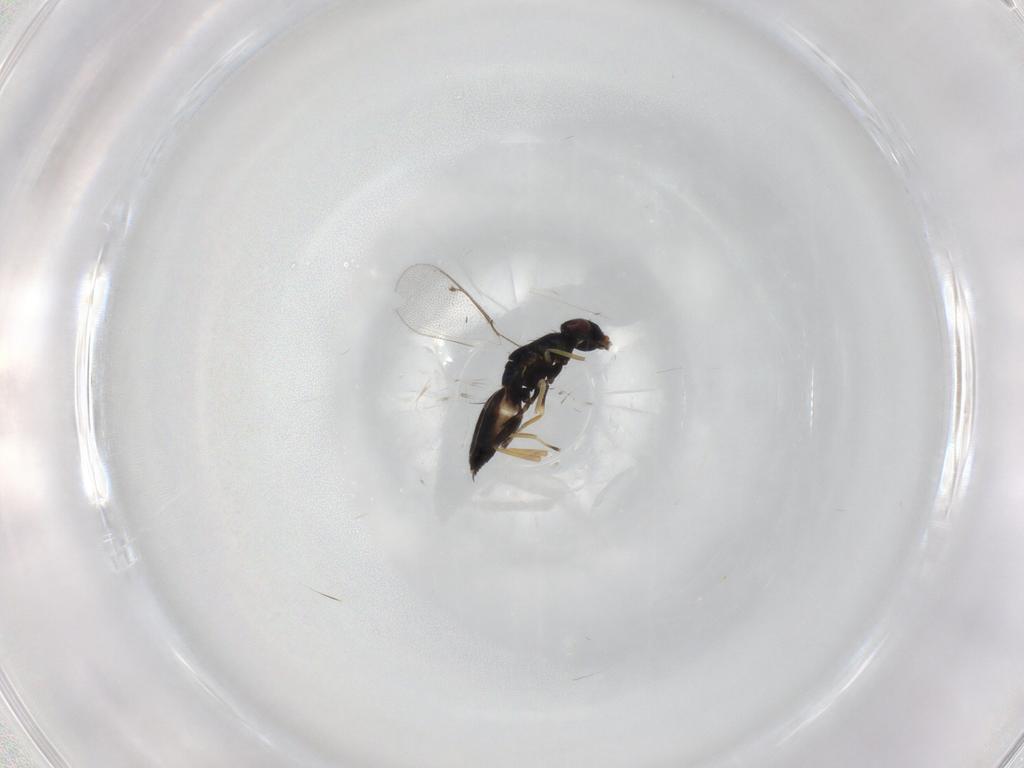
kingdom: Animalia
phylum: Arthropoda
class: Insecta
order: Hymenoptera
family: Eulophidae
